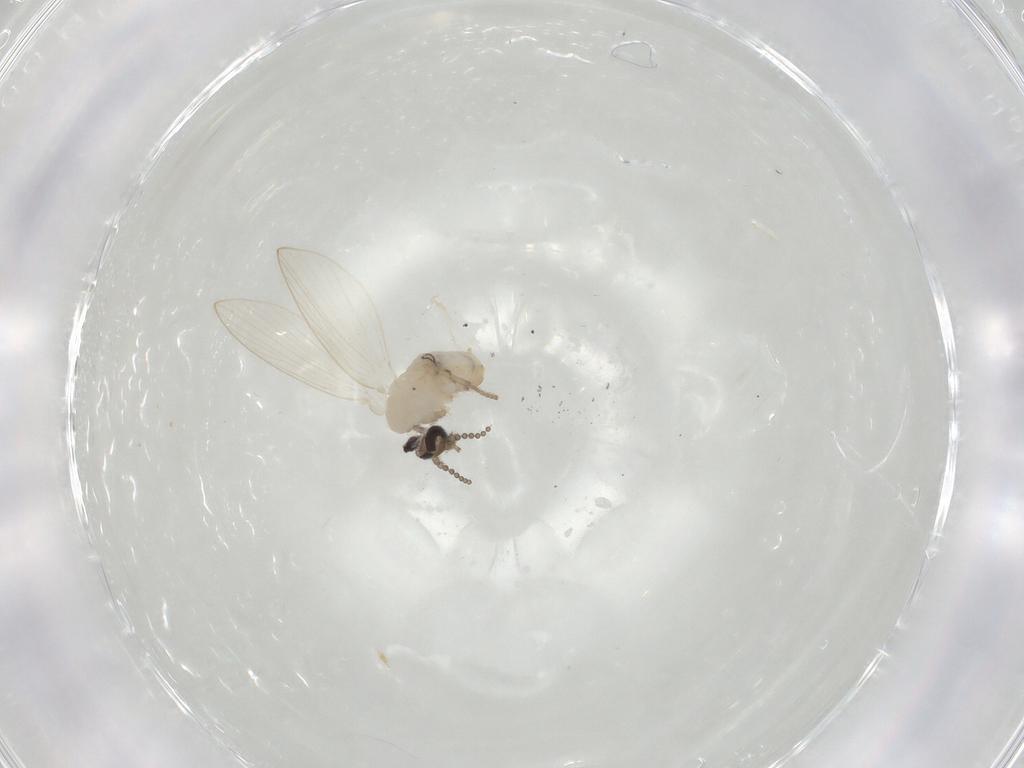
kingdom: Animalia
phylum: Arthropoda
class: Insecta
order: Diptera
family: Psychodidae
